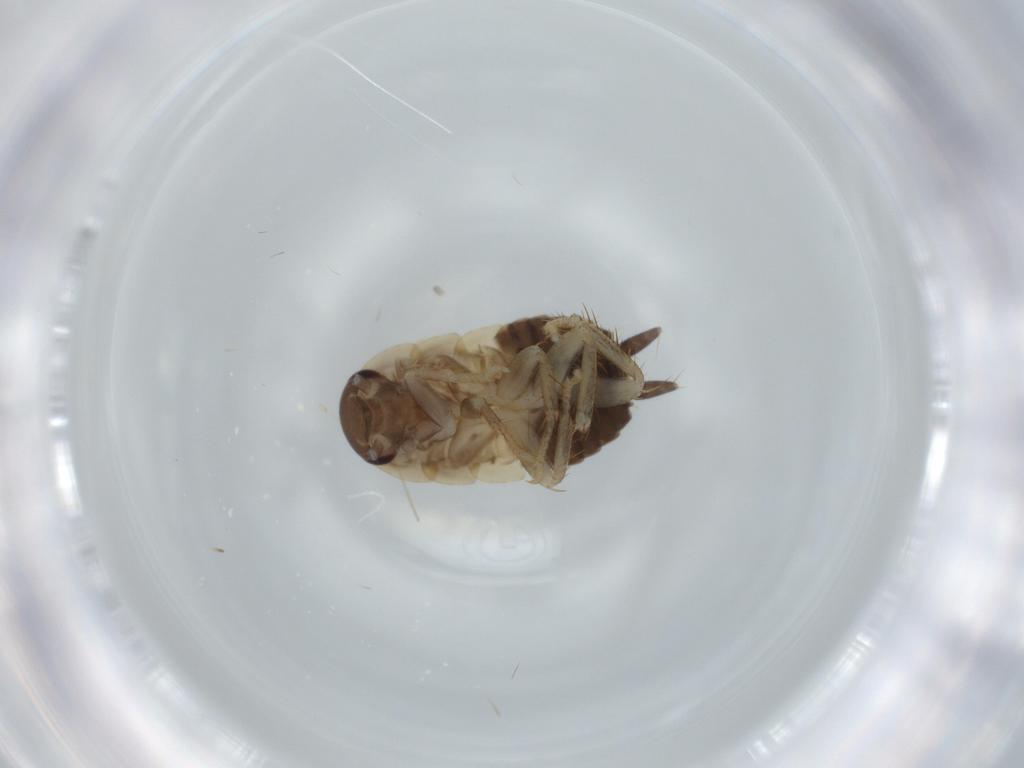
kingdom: Animalia
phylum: Arthropoda
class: Insecta
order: Blattodea
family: Ectobiidae
